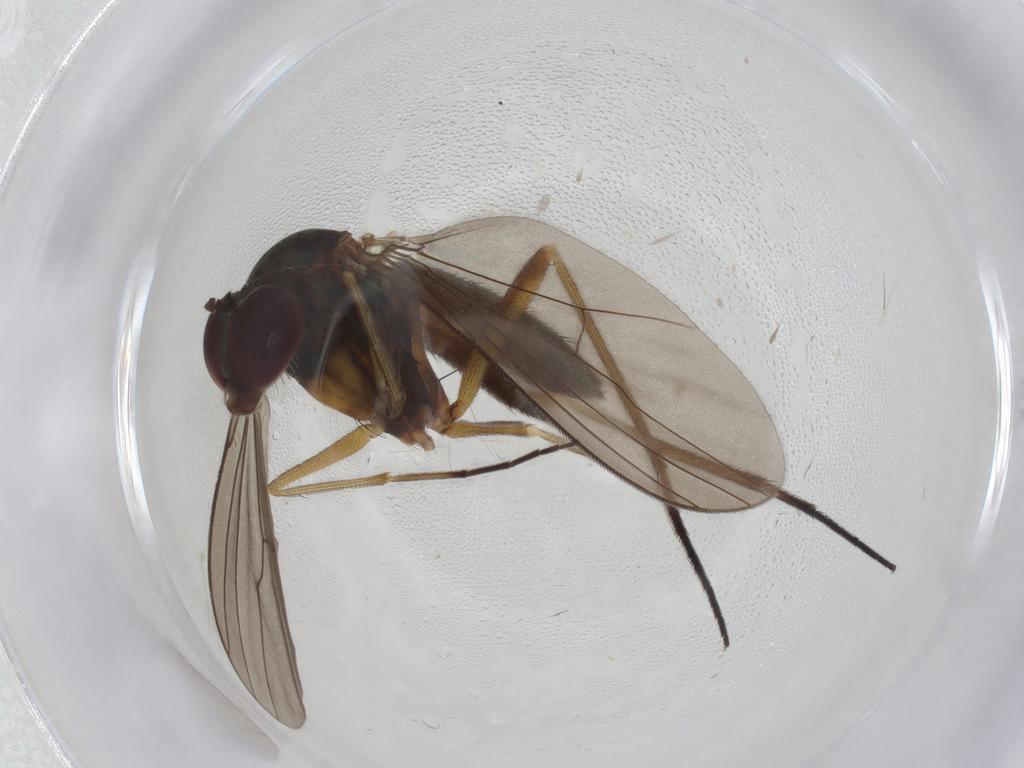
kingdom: Animalia
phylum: Arthropoda
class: Insecta
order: Diptera
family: Dolichopodidae
